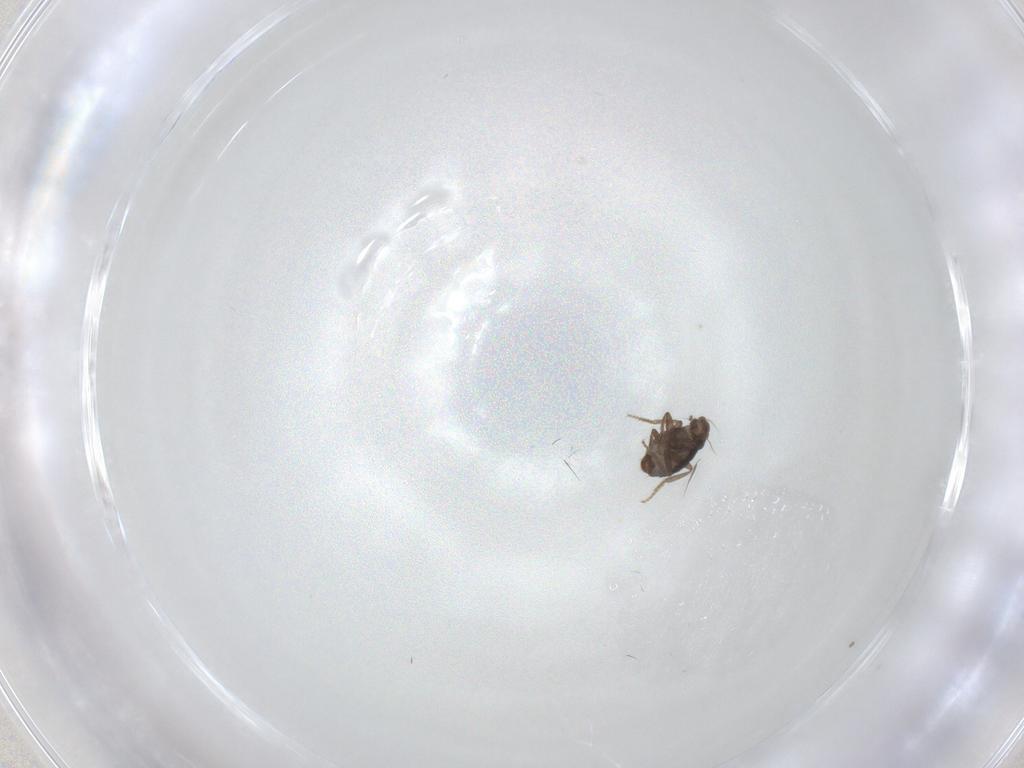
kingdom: Animalia
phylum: Arthropoda
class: Insecta
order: Diptera
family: Phoridae
